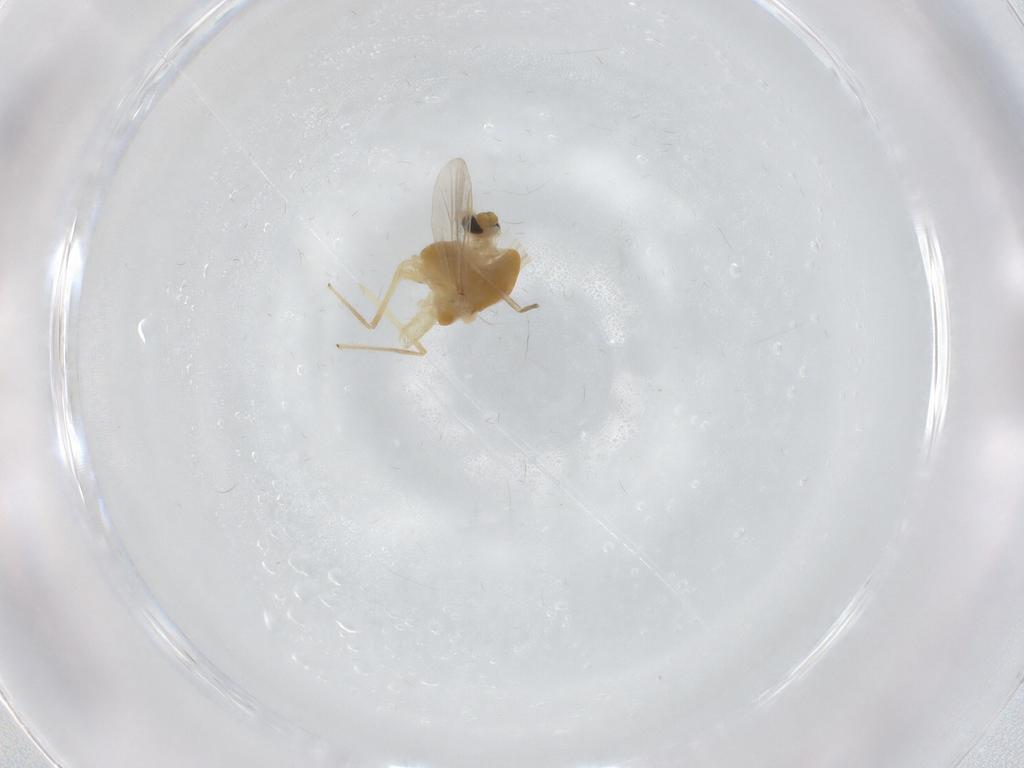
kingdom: Animalia
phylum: Arthropoda
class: Insecta
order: Diptera
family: Chironomidae
